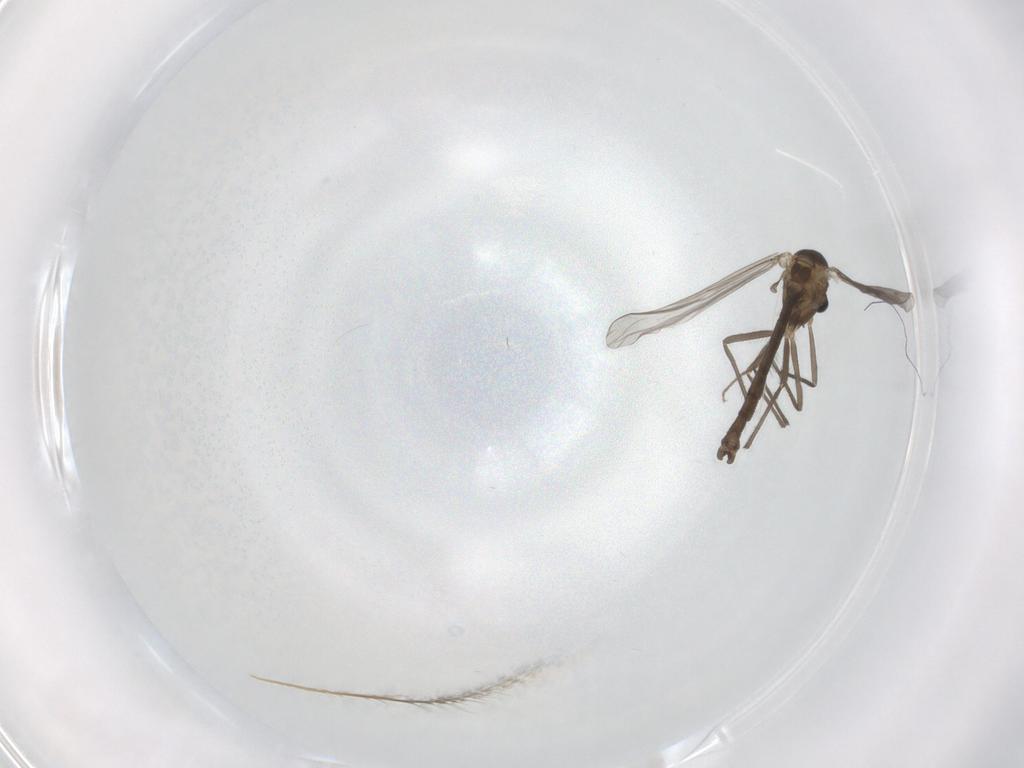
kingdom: Animalia
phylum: Arthropoda
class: Insecta
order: Diptera
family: Chironomidae
